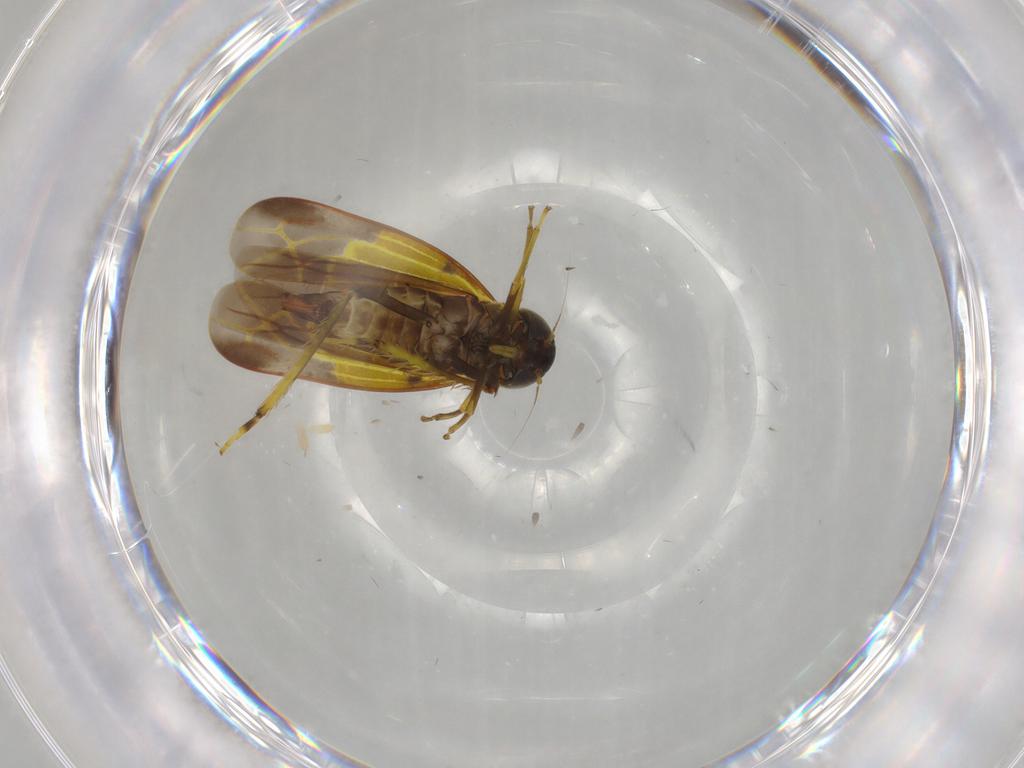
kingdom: Animalia
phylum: Arthropoda
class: Insecta
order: Hemiptera
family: Cicadellidae
